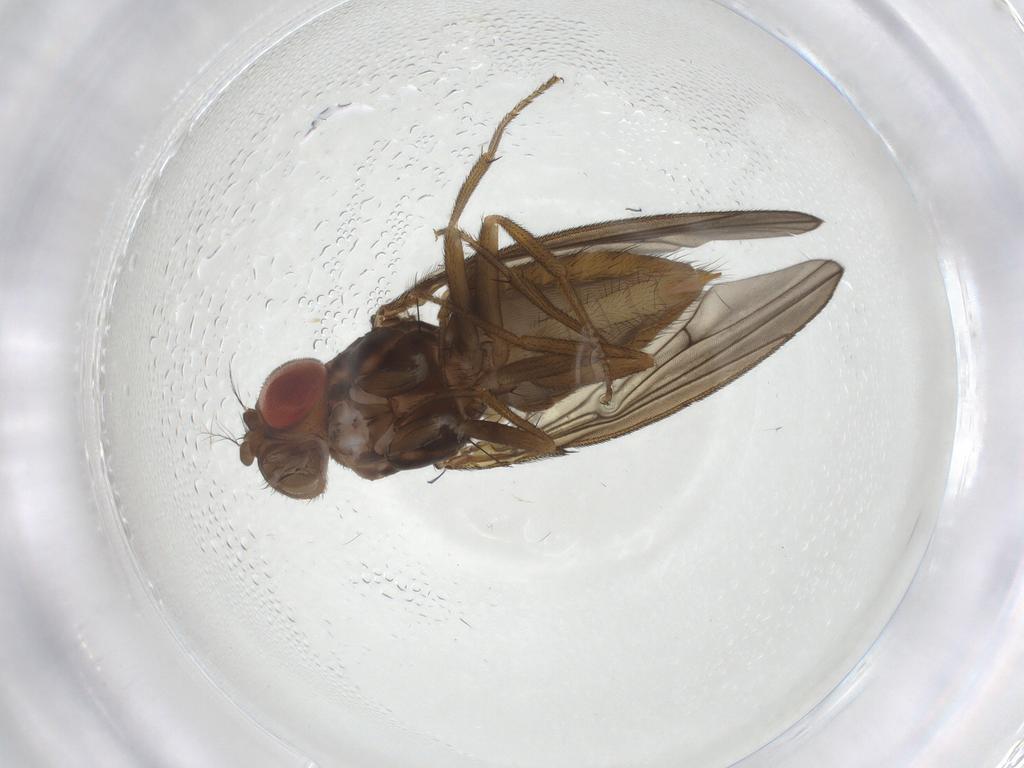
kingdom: Animalia
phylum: Arthropoda
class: Insecta
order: Diptera
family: Drosophilidae
